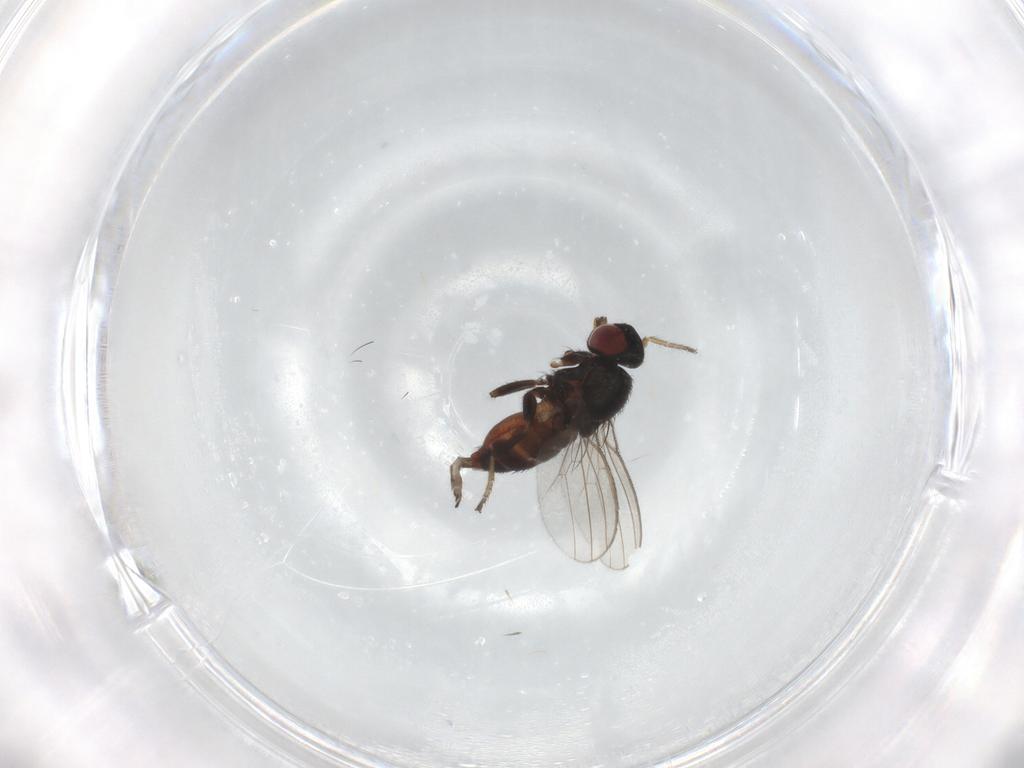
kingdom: Animalia
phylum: Arthropoda
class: Insecta
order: Diptera
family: Milichiidae
